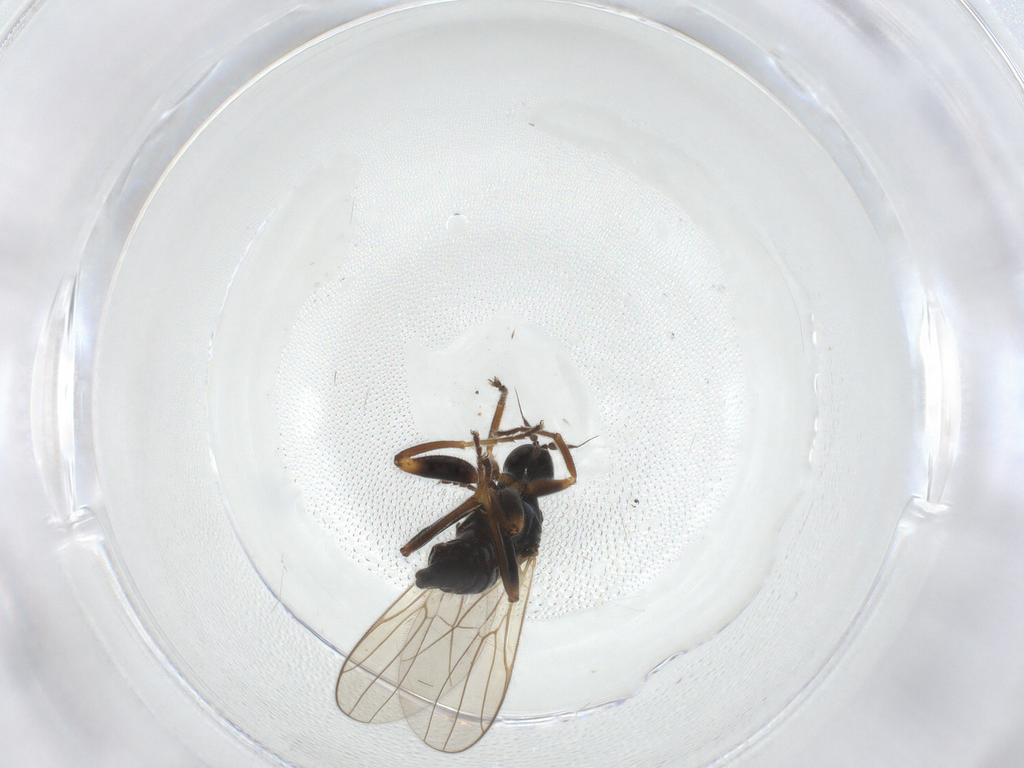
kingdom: Animalia
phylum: Arthropoda
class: Insecta
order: Diptera
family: Hybotidae
